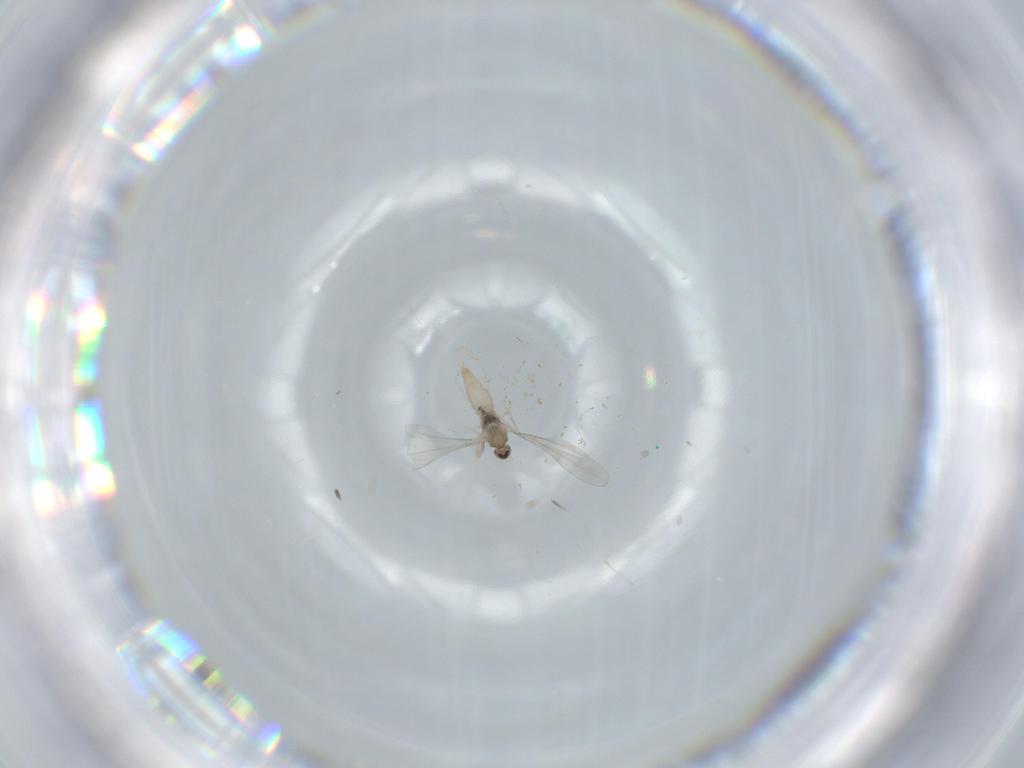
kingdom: Animalia
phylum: Arthropoda
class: Insecta
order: Diptera
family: Cecidomyiidae
